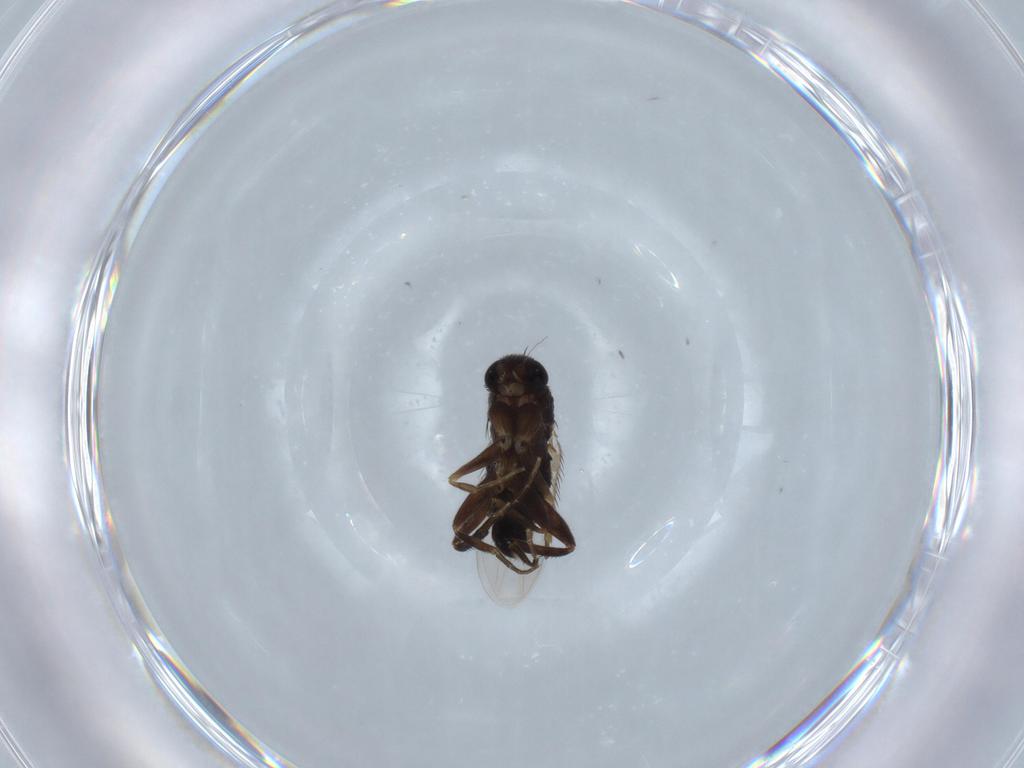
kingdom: Animalia
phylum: Arthropoda
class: Insecta
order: Diptera
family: Phoridae
